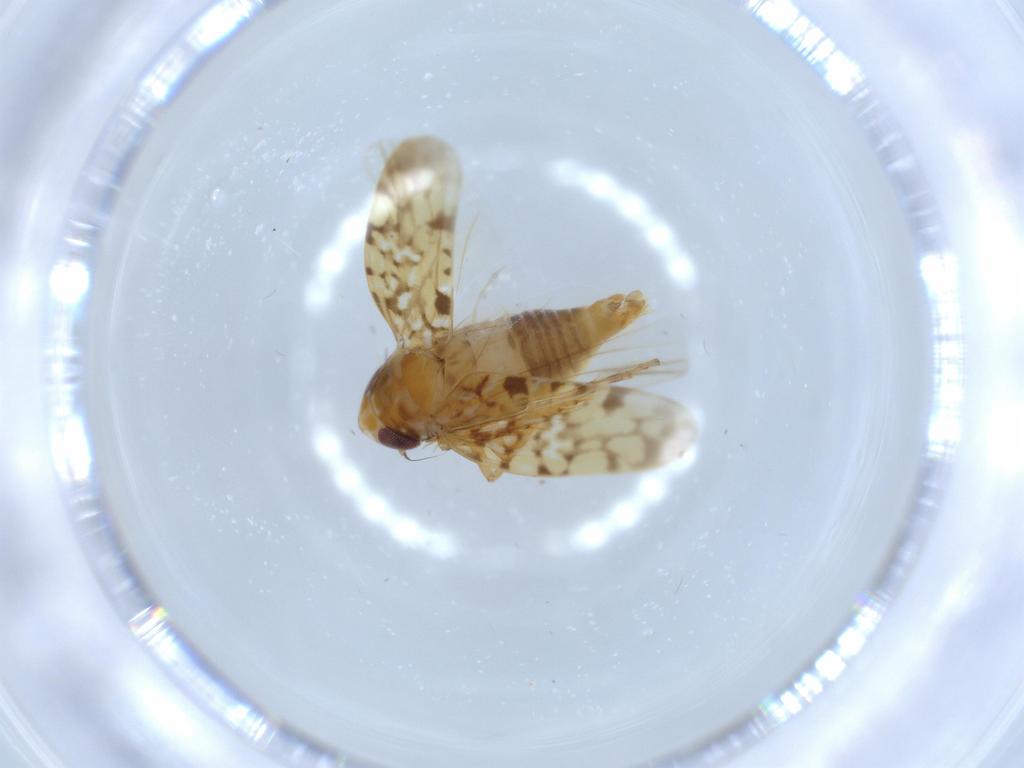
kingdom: Animalia
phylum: Arthropoda
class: Insecta
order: Hemiptera
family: Cicadellidae
